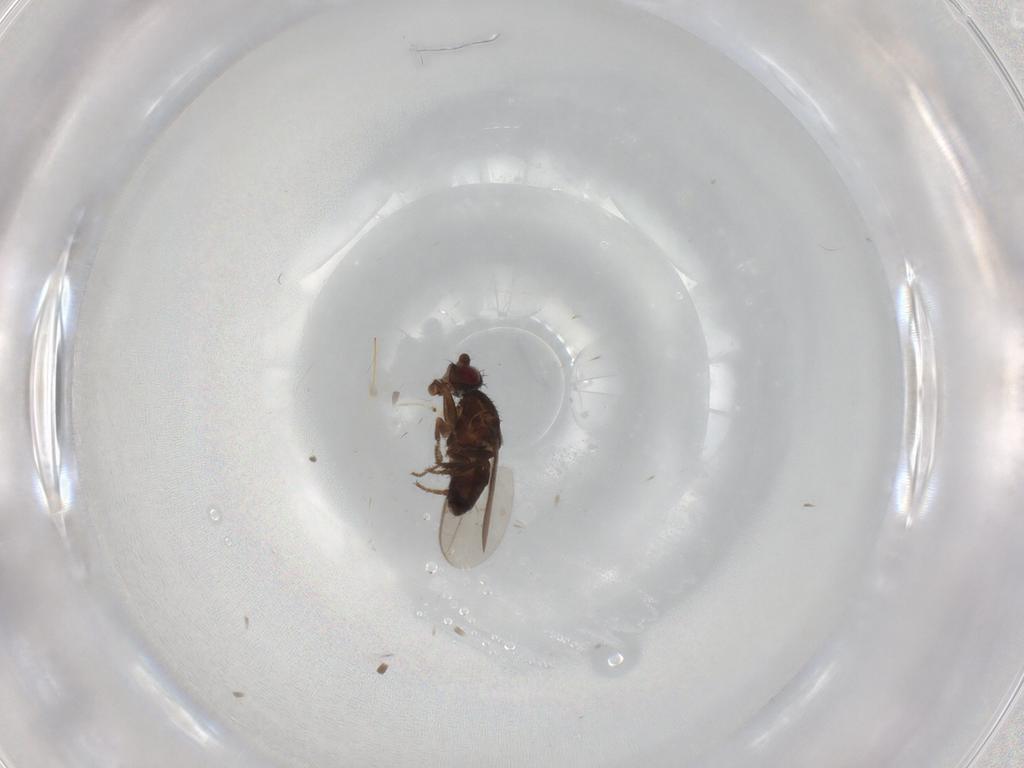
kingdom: Animalia
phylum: Arthropoda
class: Insecta
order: Diptera
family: Sphaeroceridae
